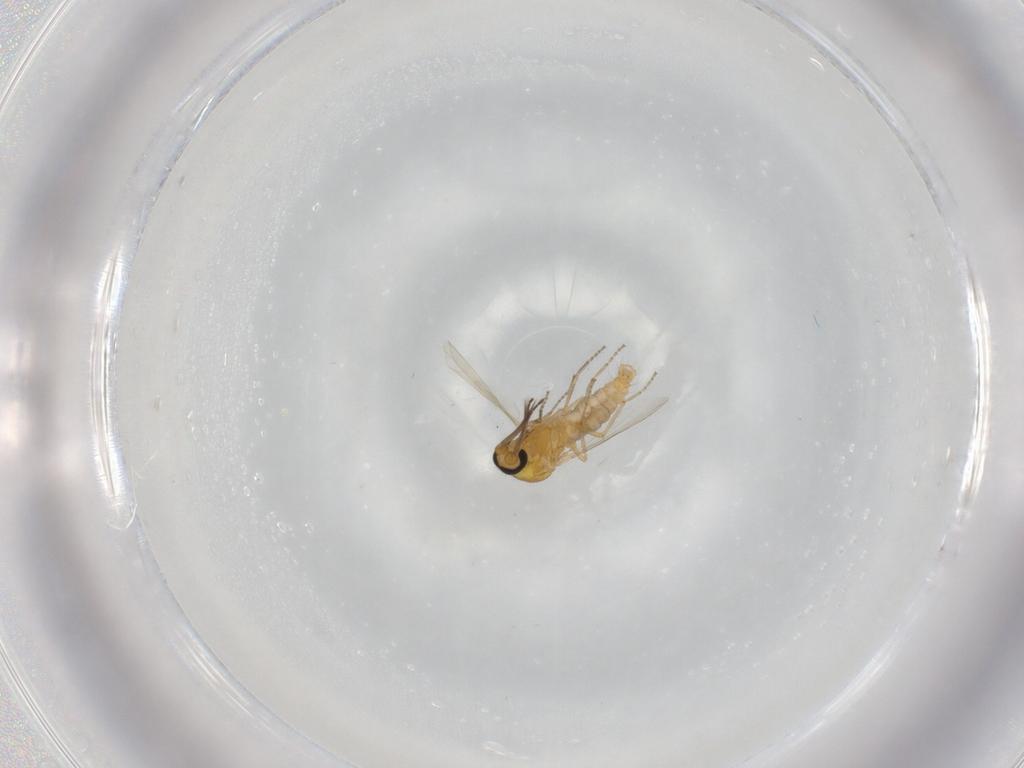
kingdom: Animalia
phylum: Arthropoda
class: Insecta
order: Diptera
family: Ceratopogonidae
